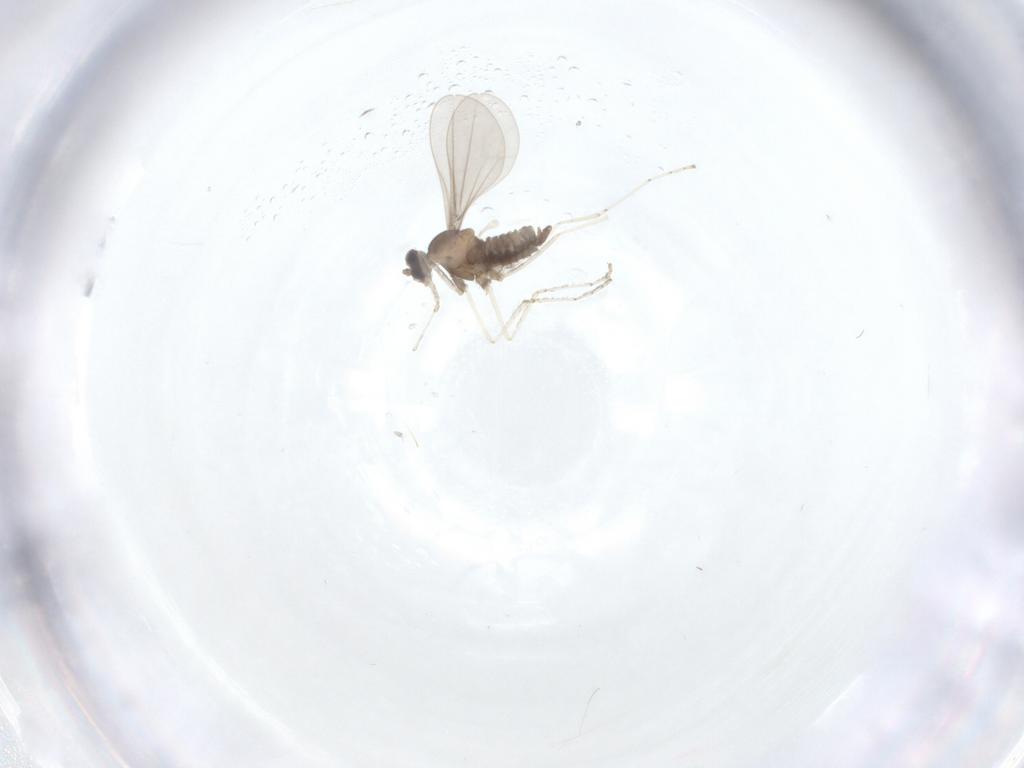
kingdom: Animalia
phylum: Arthropoda
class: Insecta
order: Diptera
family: Cecidomyiidae
